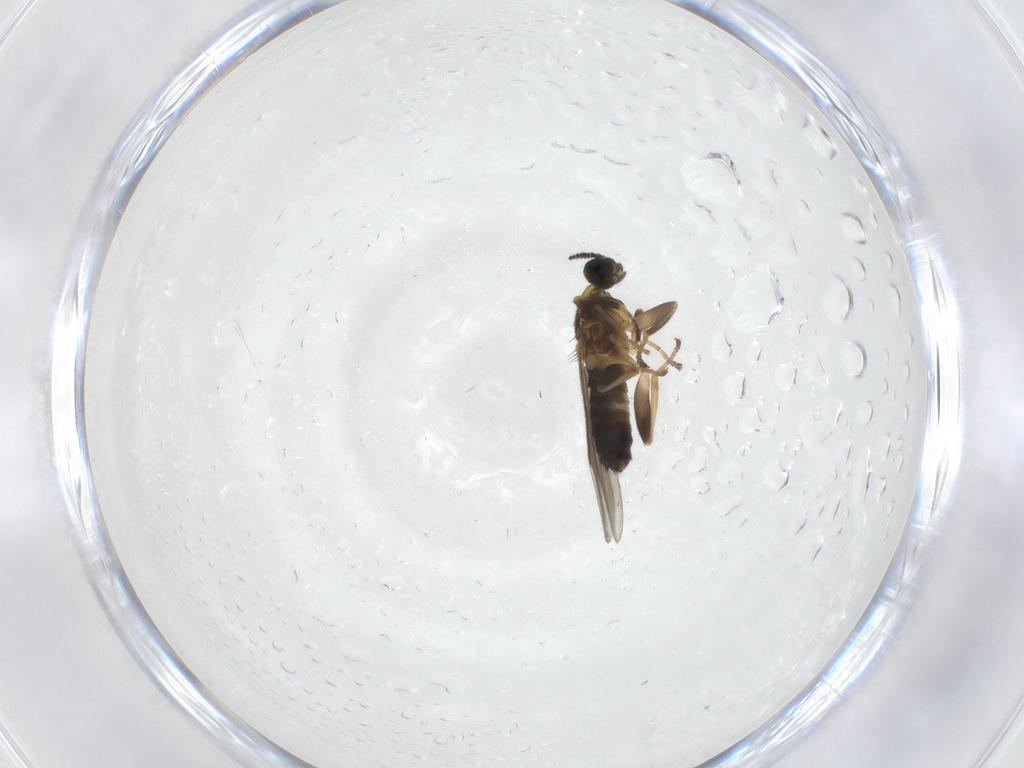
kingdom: Animalia
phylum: Arthropoda
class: Insecta
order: Diptera
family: Scatopsidae
